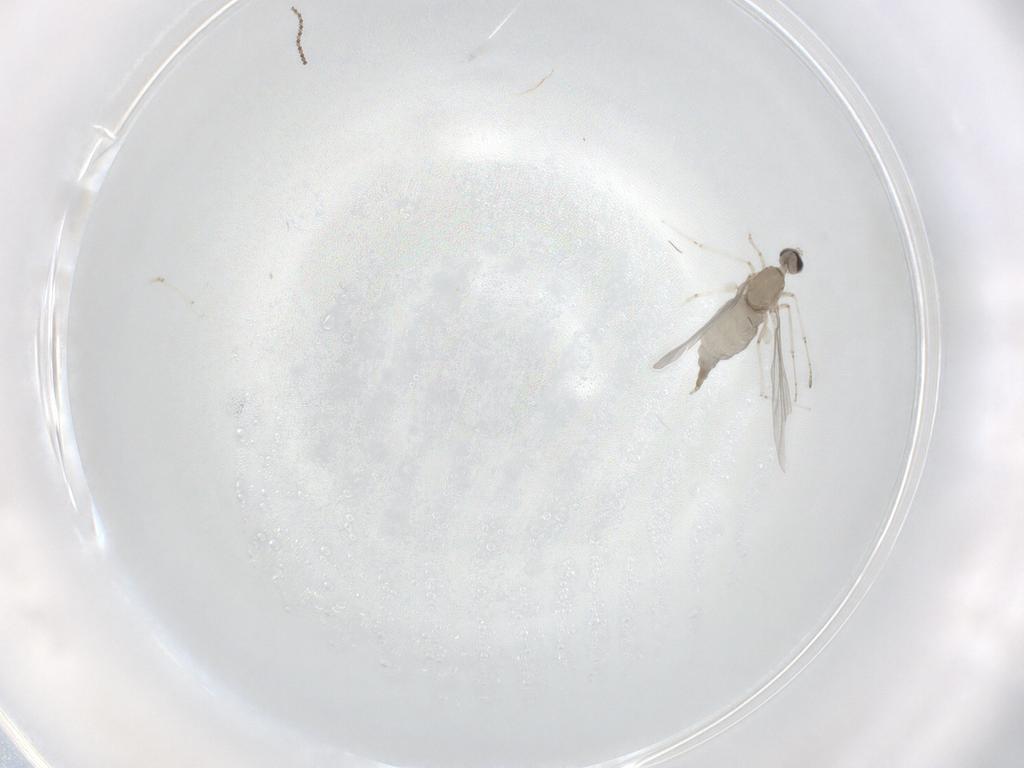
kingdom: Animalia
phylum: Arthropoda
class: Insecta
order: Diptera
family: Cecidomyiidae
